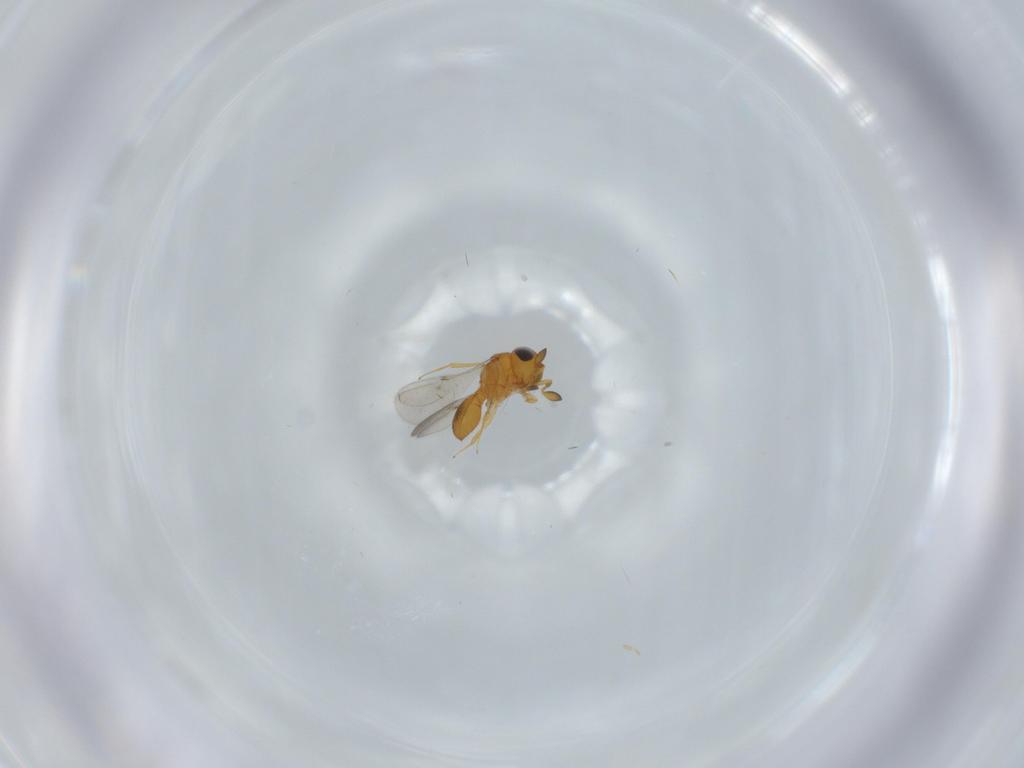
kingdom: Animalia
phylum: Arthropoda
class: Insecta
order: Hymenoptera
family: Scelionidae
